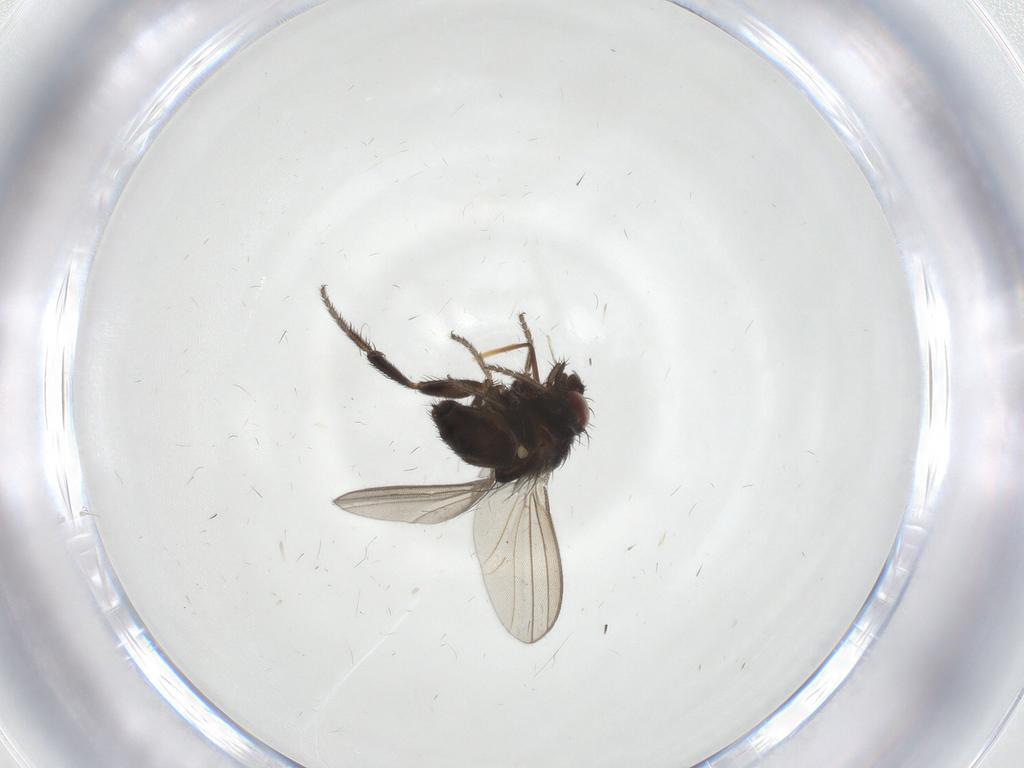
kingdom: Animalia
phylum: Arthropoda
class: Insecta
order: Diptera
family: Milichiidae
